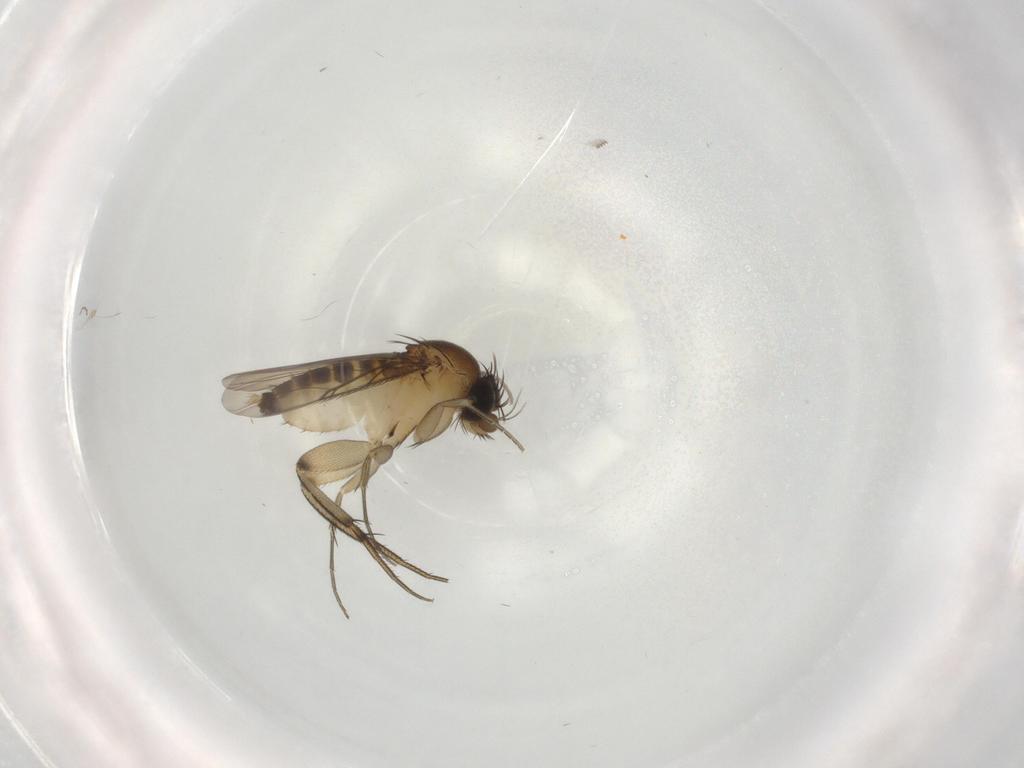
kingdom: Animalia
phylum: Arthropoda
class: Insecta
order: Diptera
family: Phoridae
